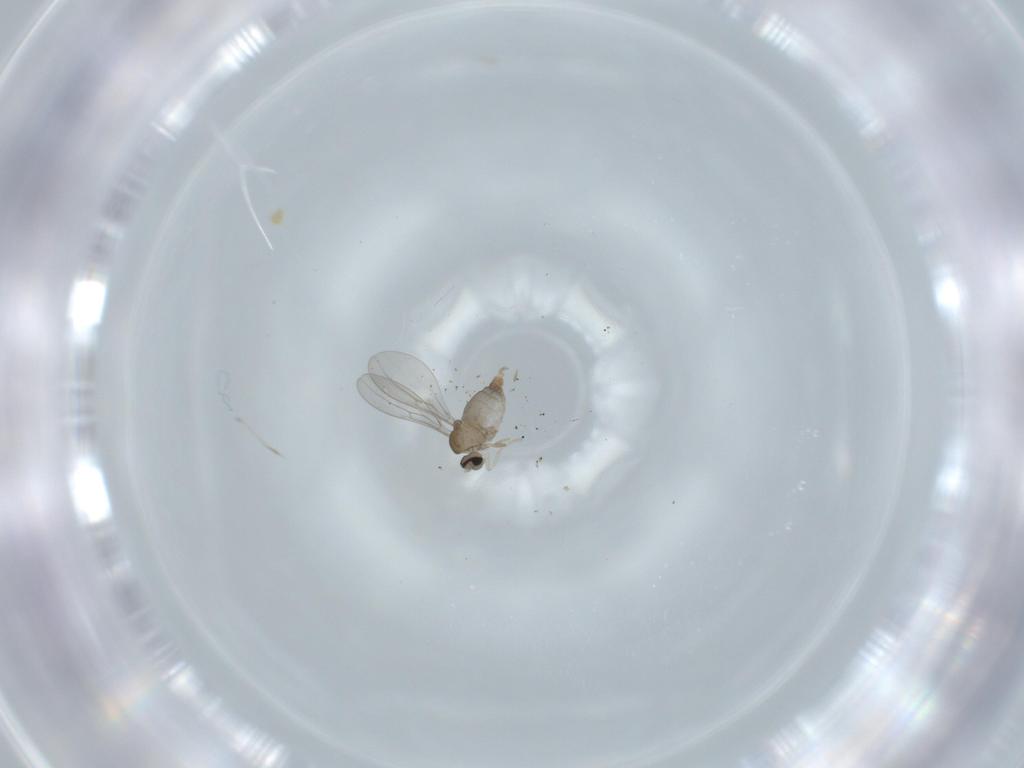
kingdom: Animalia
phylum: Arthropoda
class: Insecta
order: Diptera
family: Cecidomyiidae
